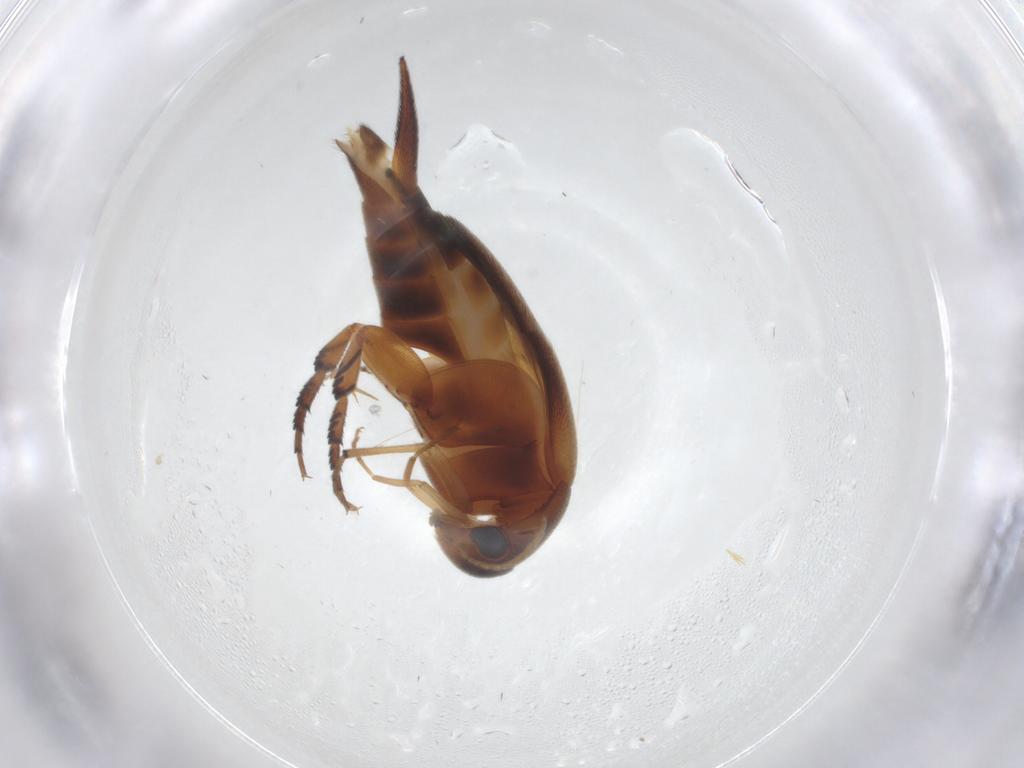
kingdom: Animalia
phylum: Arthropoda
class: Insecta
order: Coleoptera
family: Mordellidae
